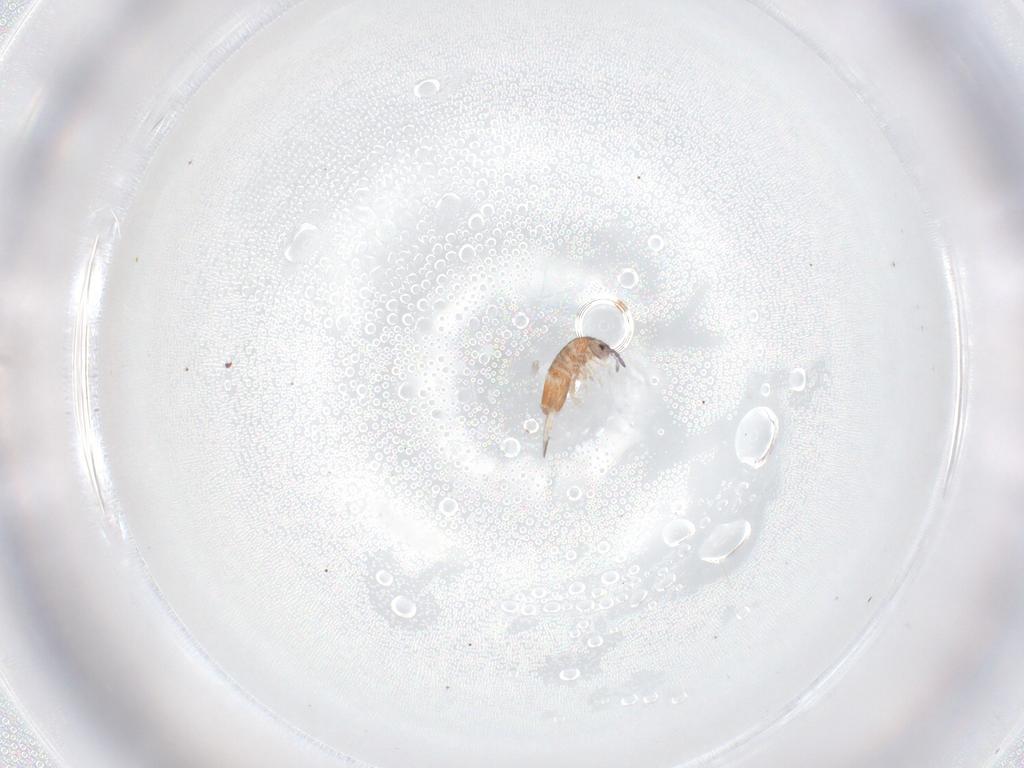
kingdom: Animalia
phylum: Arthropoda
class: Collembola
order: Entomobryomorpha
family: Entomobryidae
